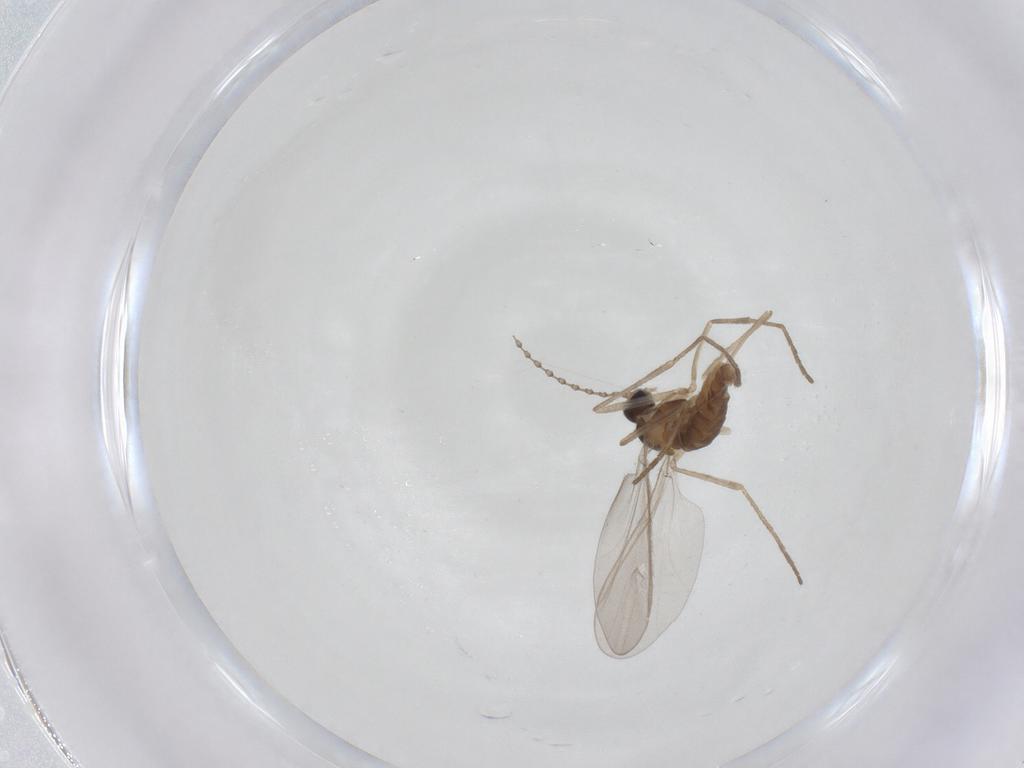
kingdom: Animalia
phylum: Arthropoda
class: Insecta
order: Diptera
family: Cecidomyiidae
